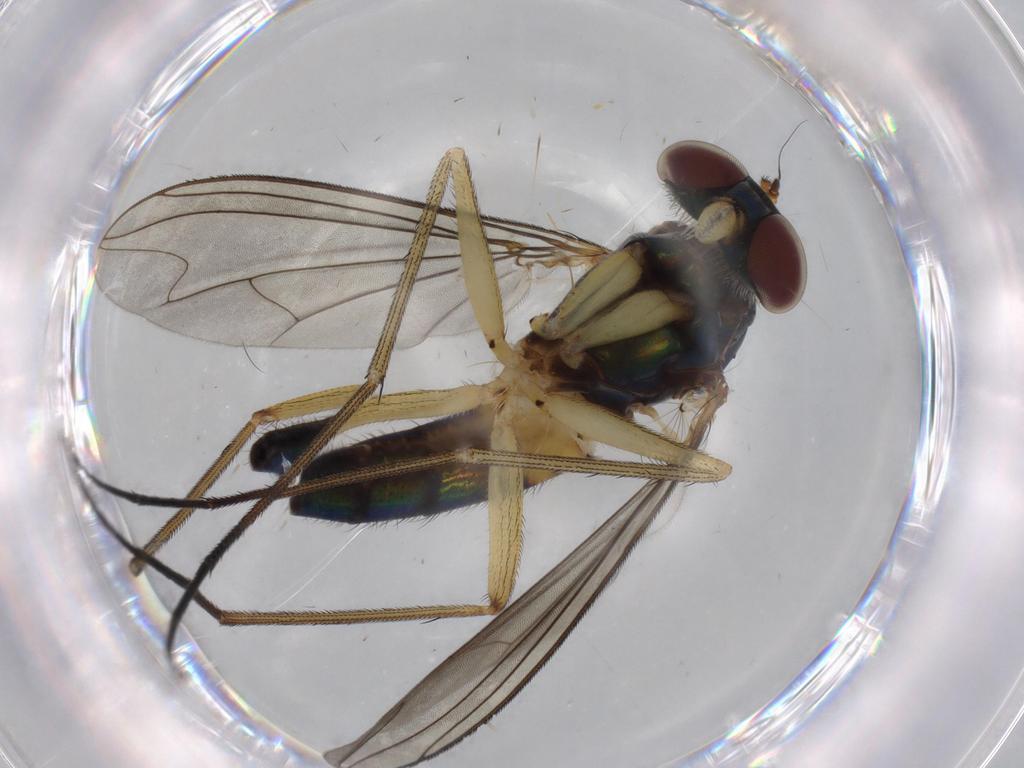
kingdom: Animalia
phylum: Arthropoda
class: Insecta
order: Diptera
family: Dolichopodidae
